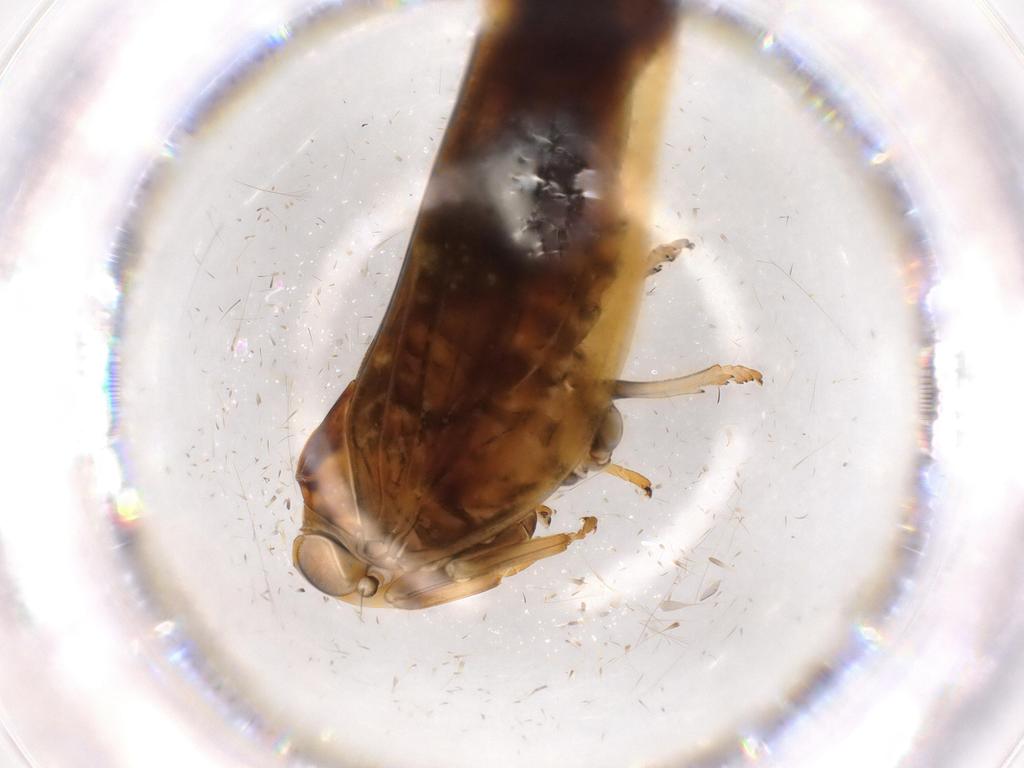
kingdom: Animalia
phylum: Arthropoda
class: Insecta
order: Hemiptera
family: Nogodinidae
